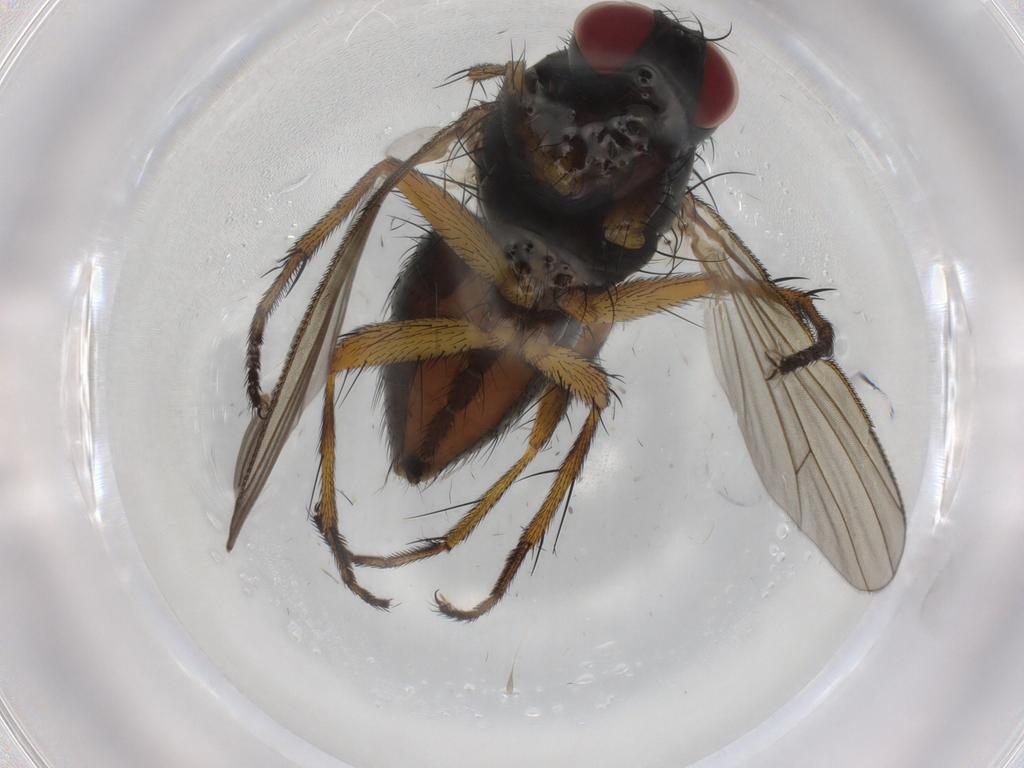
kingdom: Animalia
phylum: Arthropoda
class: Insecta
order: Diptera
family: Muscidae
